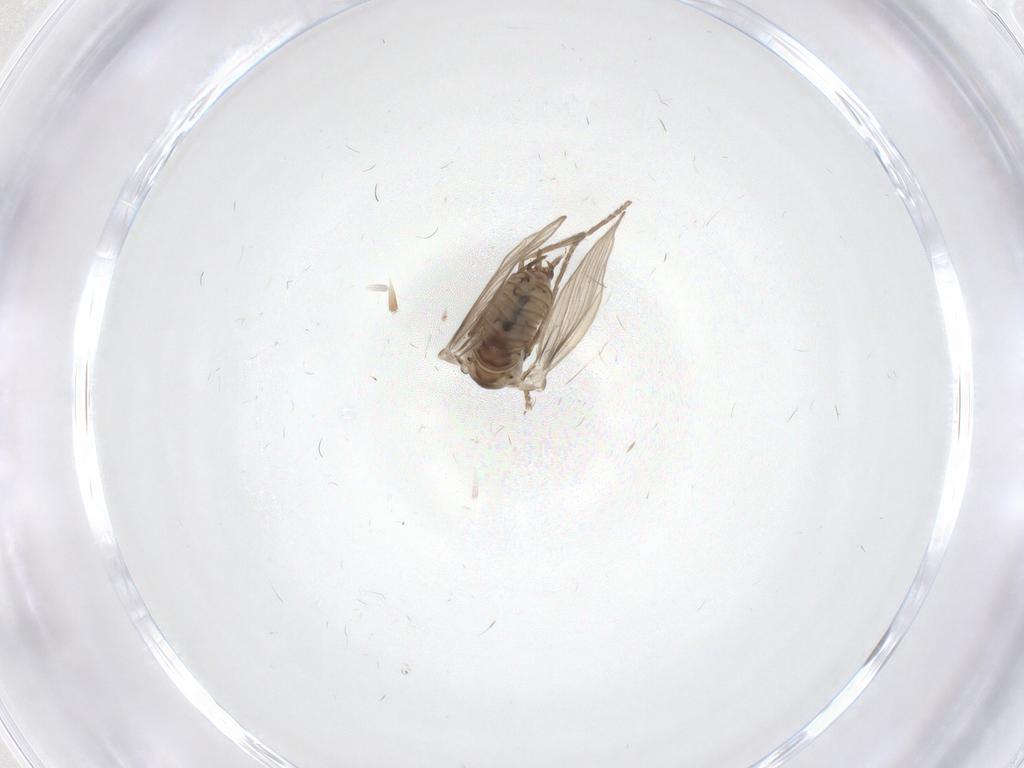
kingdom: Animalia
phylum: Arthropoda
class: Insecta
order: Diptera
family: Psychodidae
